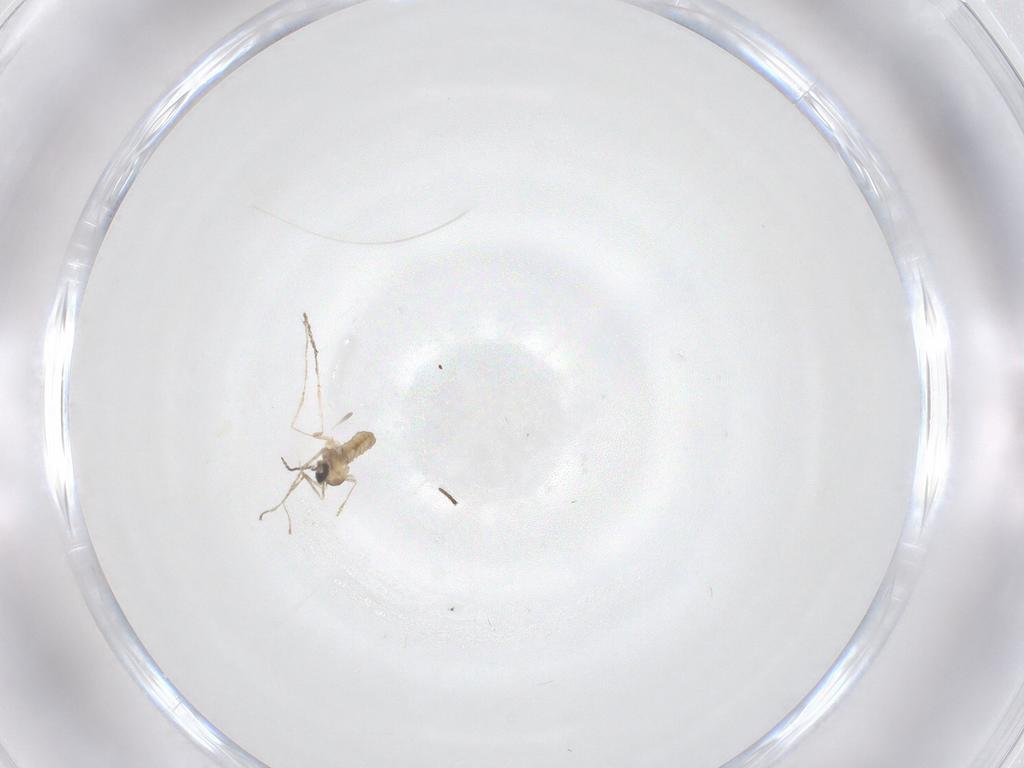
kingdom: Animalia
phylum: Arthropoda
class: Insecta
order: Diptera
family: Cecidomyiidae
